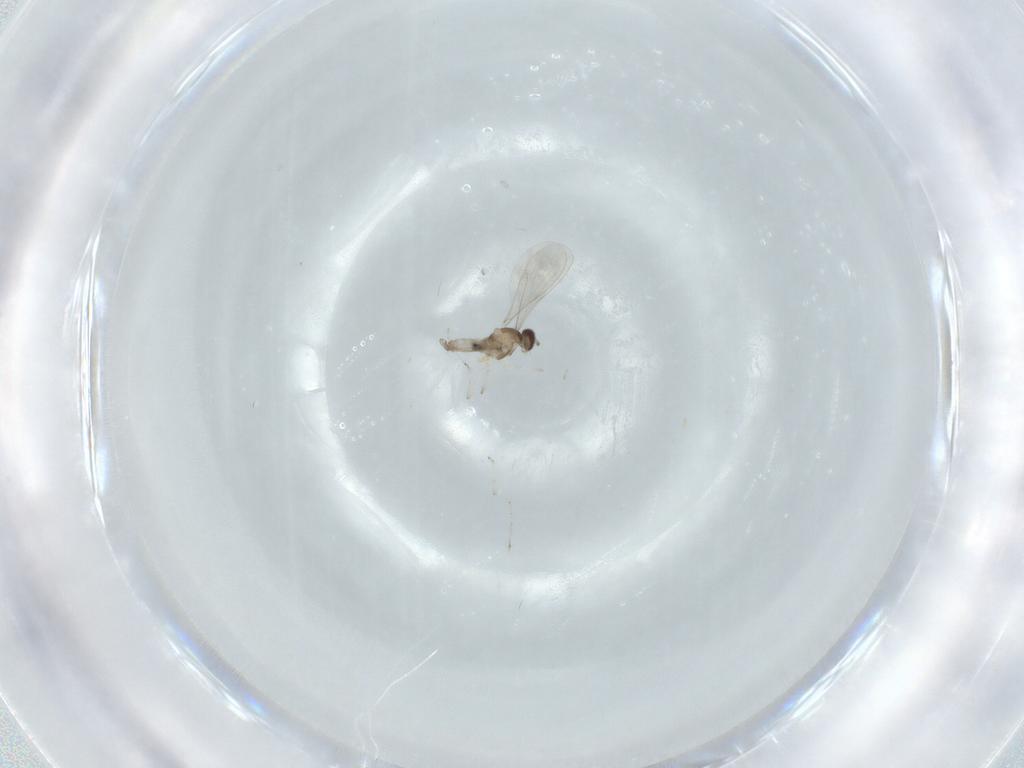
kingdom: Animalia
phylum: Arthropoda
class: Insecta
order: Diptera
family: Cecidomyiidae
